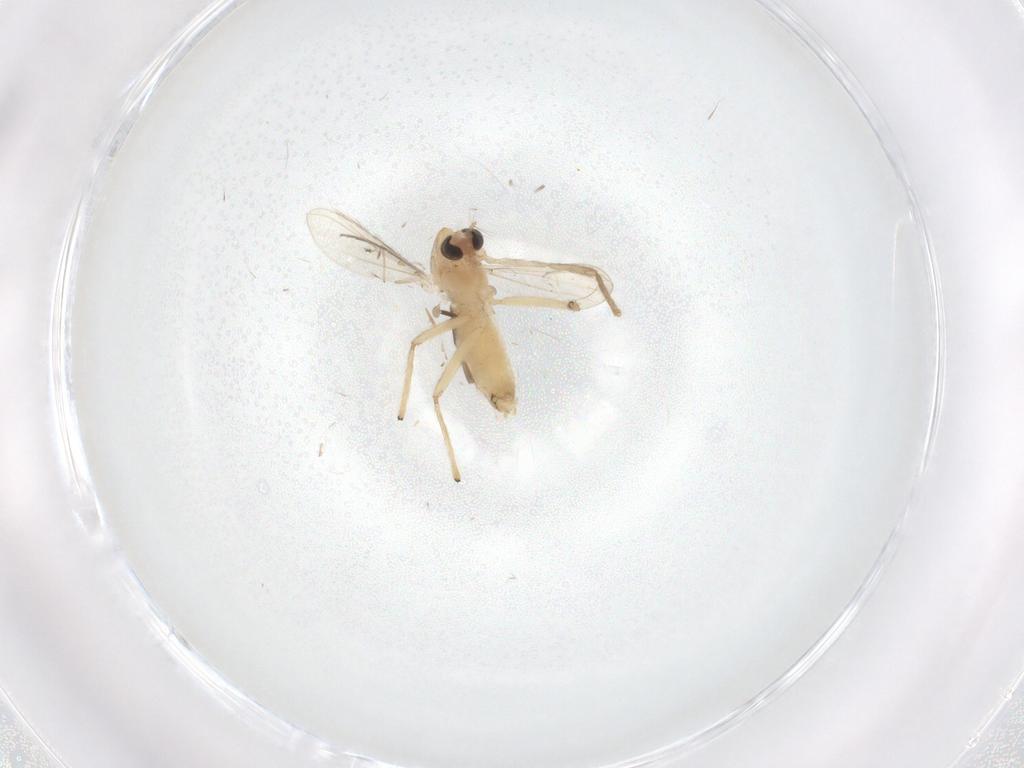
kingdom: Animalia
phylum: Arthropoda
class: Insecta
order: Diptera
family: Chironomidae
